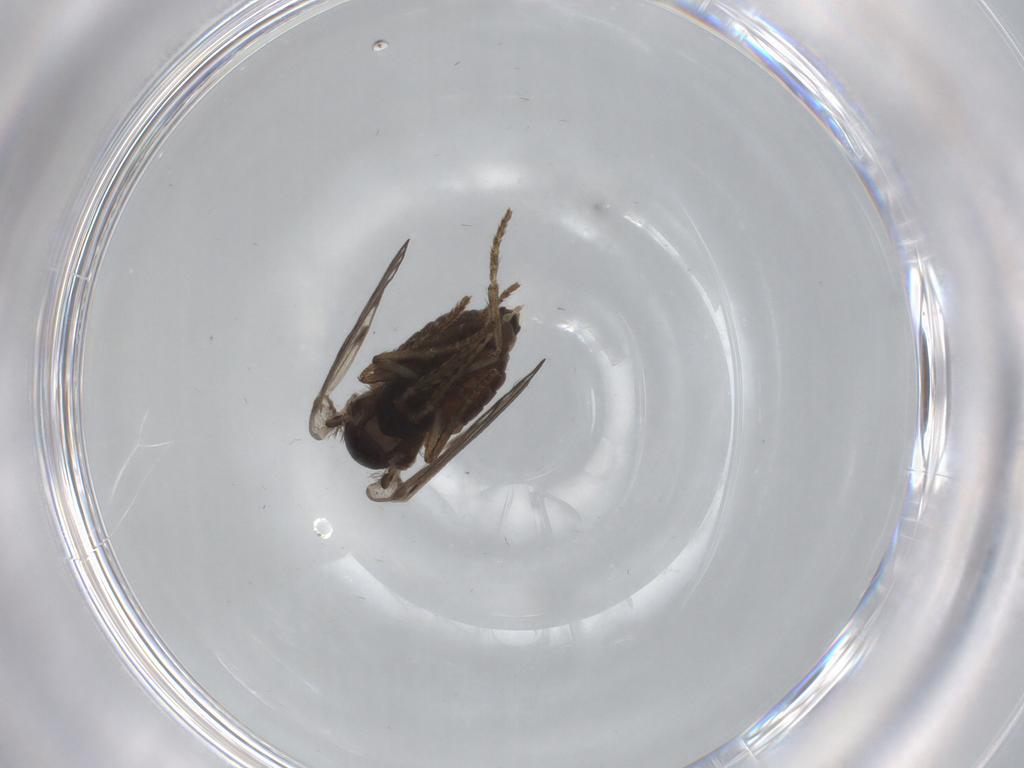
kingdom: Animalia
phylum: Arthropoda
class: Insecta
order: Diptera
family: Psychodidae
